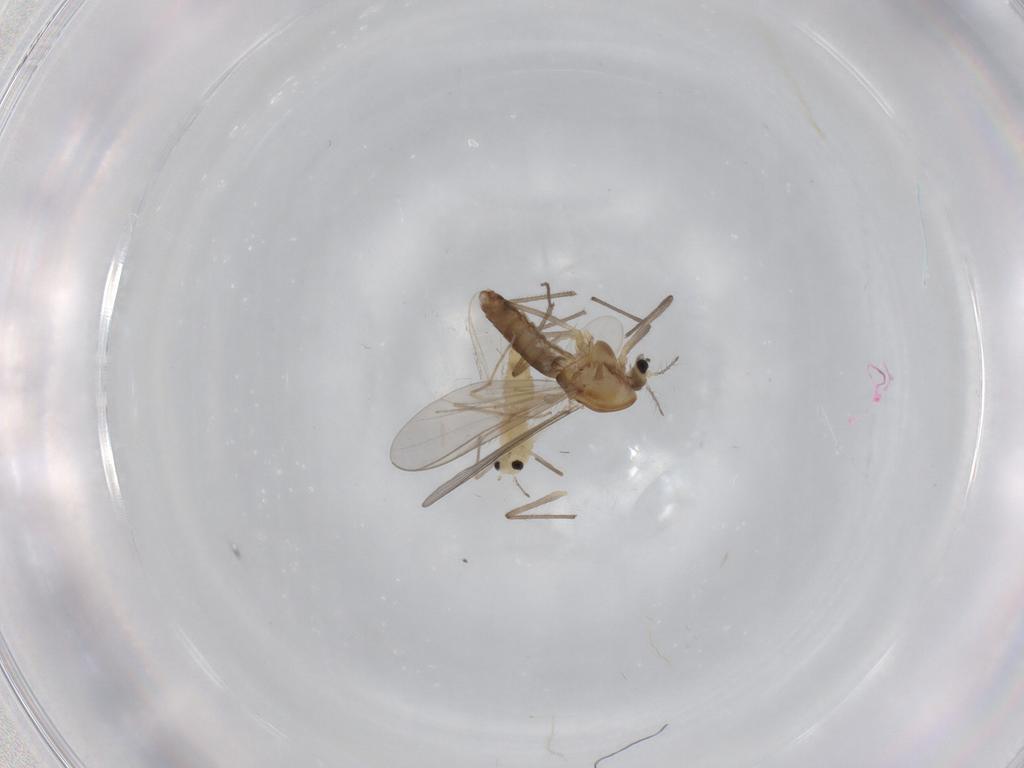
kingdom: Animalia
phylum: Arthropoda
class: Insecta
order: Diptera
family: Chironomidae
